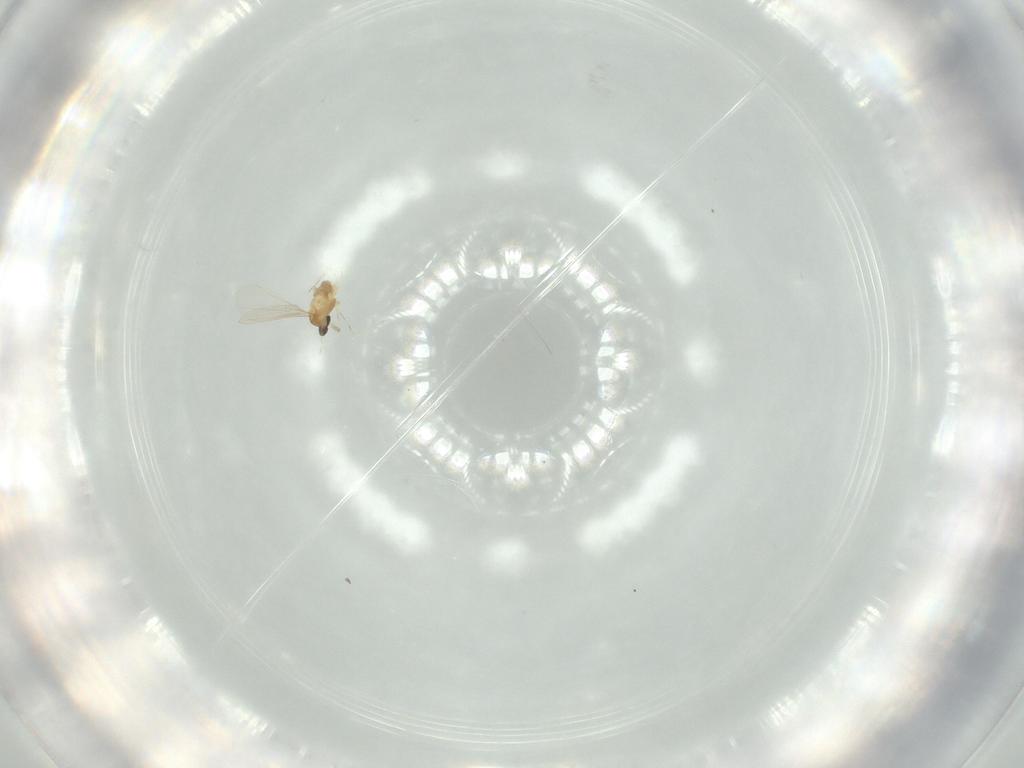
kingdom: Animalia
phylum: Arthropoda
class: Insecta
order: Diptera
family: Cecidomyiidae
